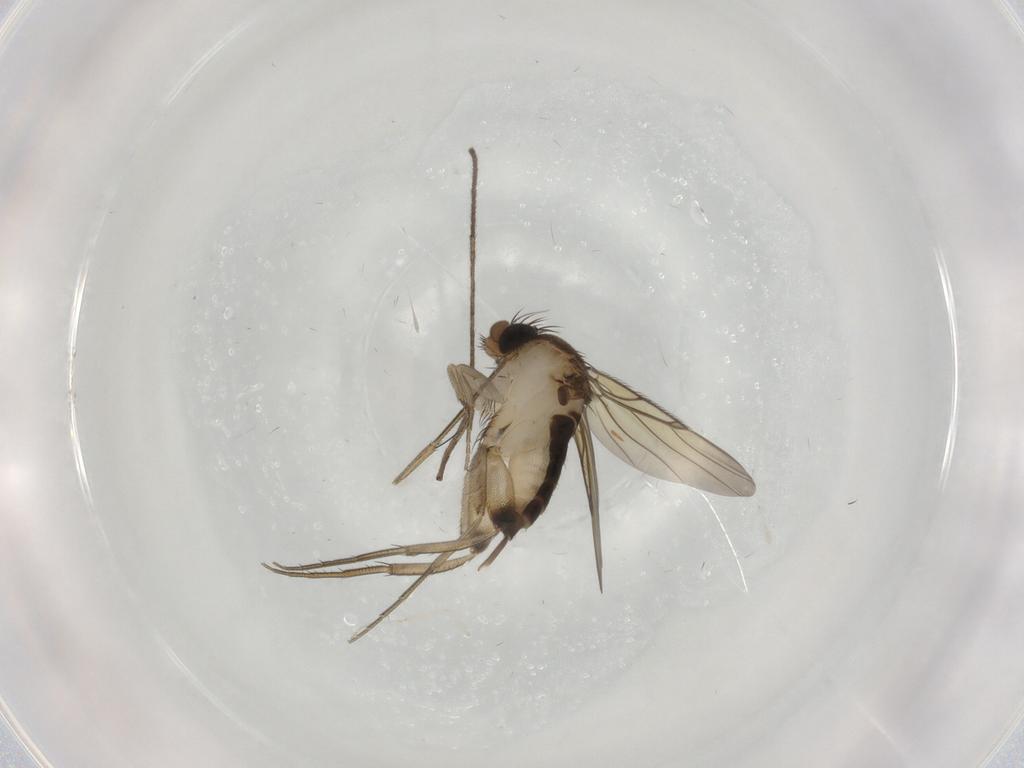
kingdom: Animalia
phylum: Arthropoda
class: Insecta
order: Diptera
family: Phoridae
